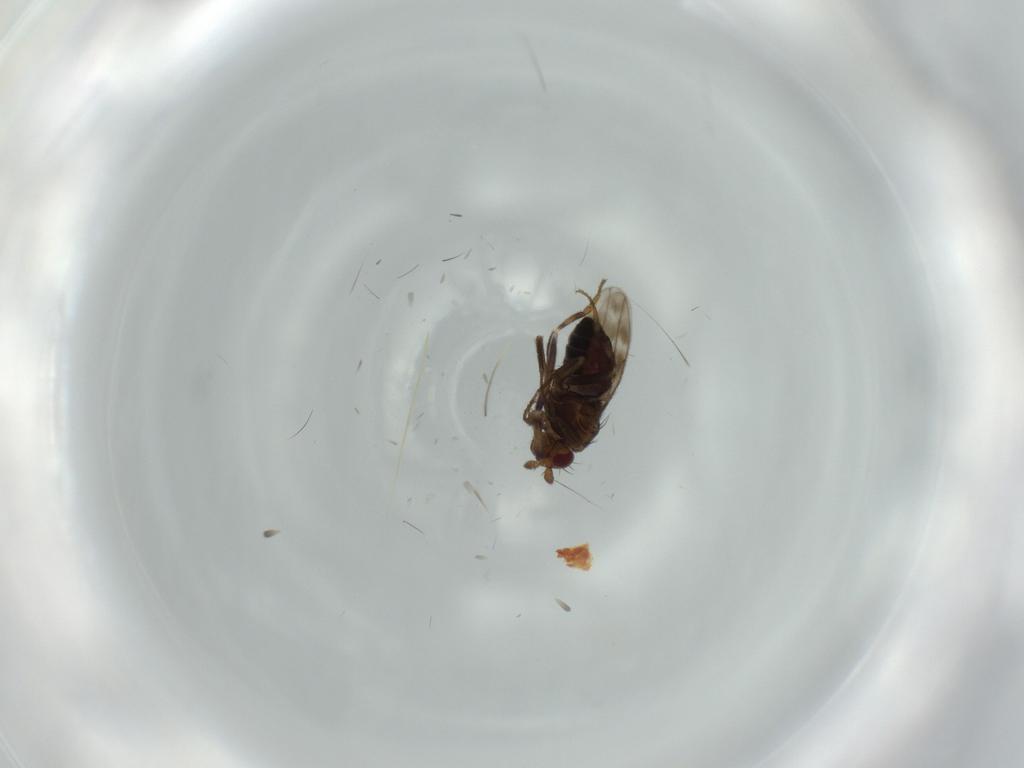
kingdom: Animalia
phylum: Arthropoda
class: Insecta
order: Diptera
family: Sphaeroceridae
